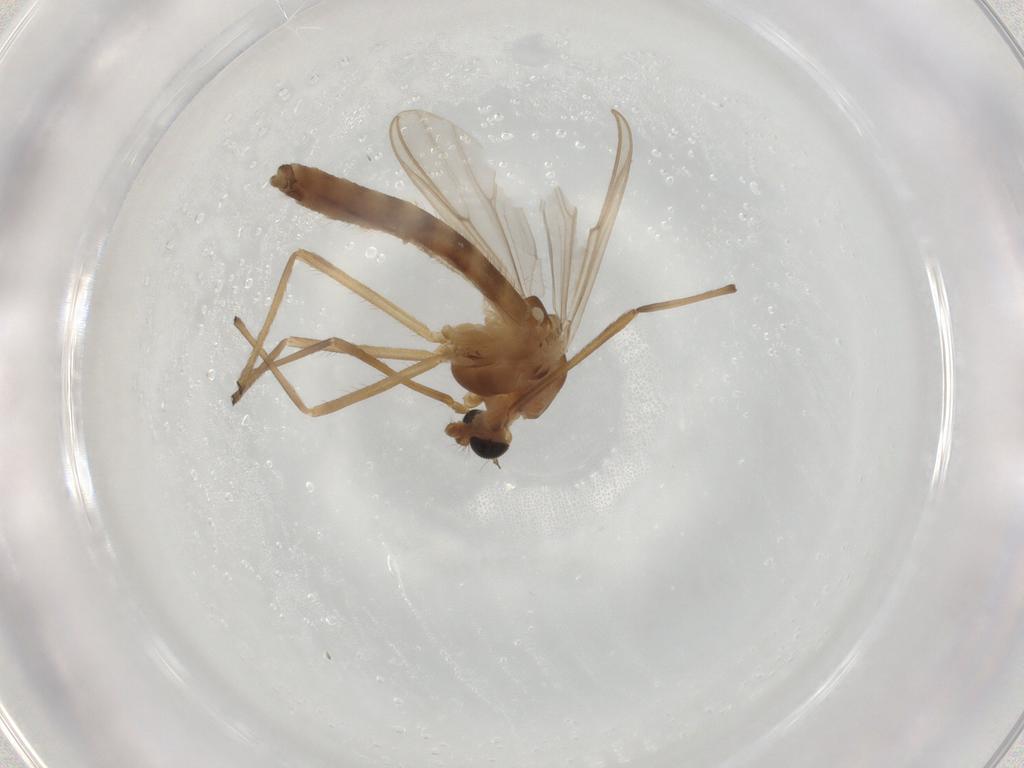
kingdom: Animalia
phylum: Arthropoda
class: Insecta
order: Diptera
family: Chironomidae
